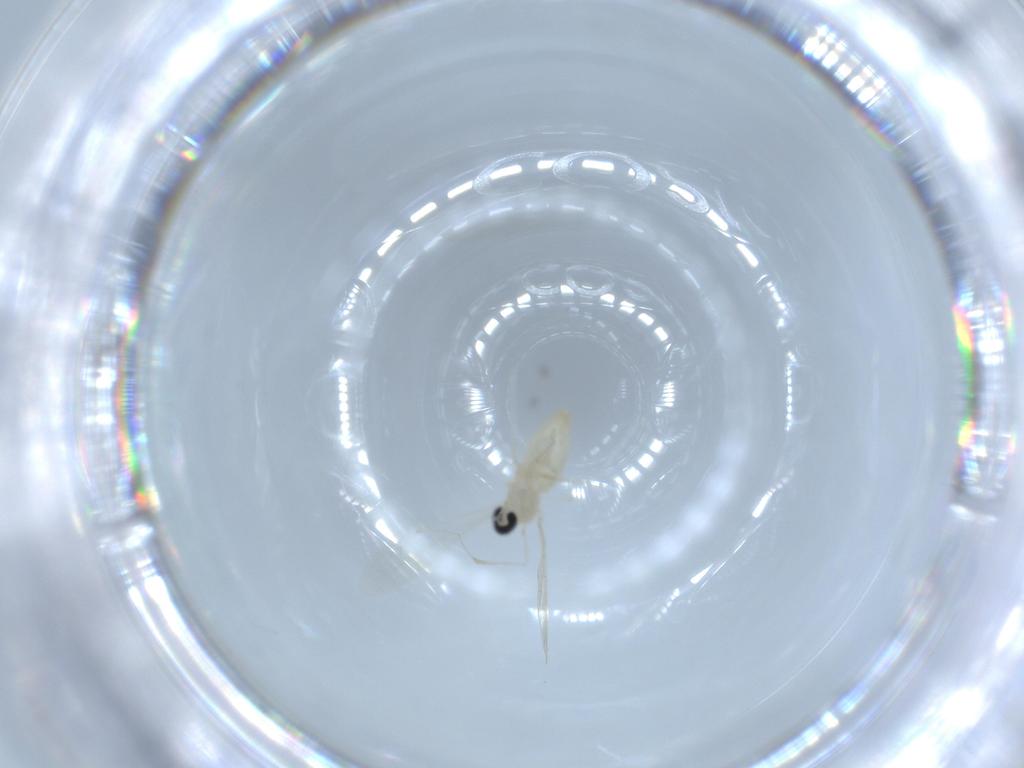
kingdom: Animalia
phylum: Arthropoda
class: Insecta
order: Diptera
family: Cecidomyiidae
